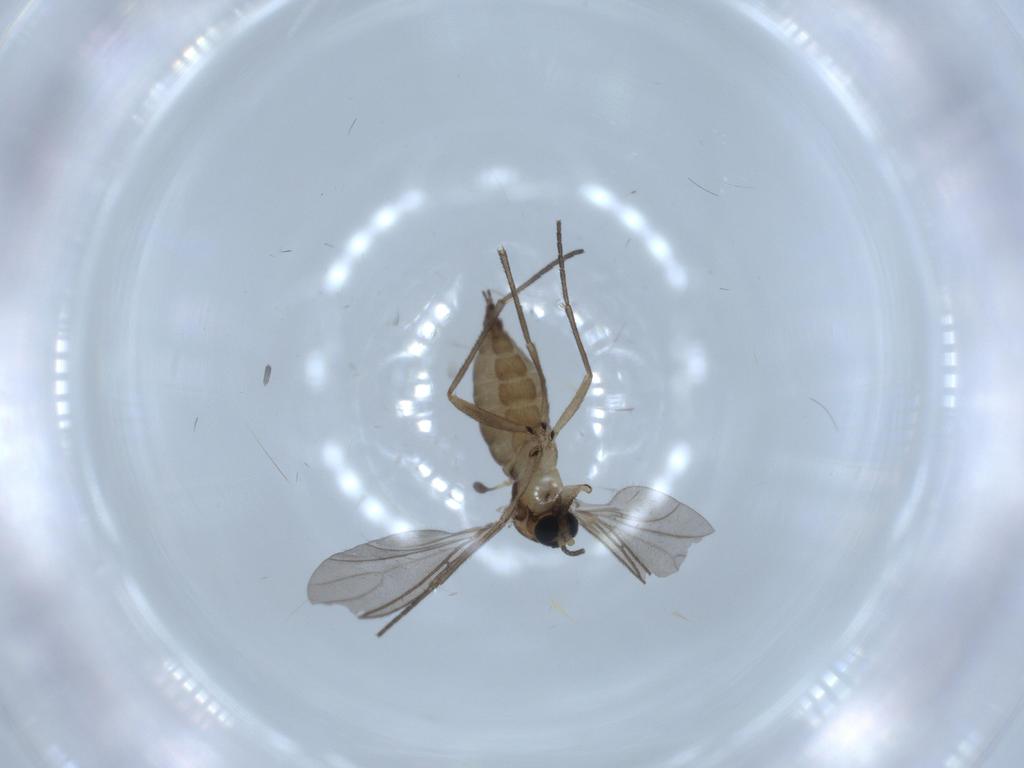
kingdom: Animalia
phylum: Arthropoda
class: Insecta
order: Diptera
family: Sciaridae
